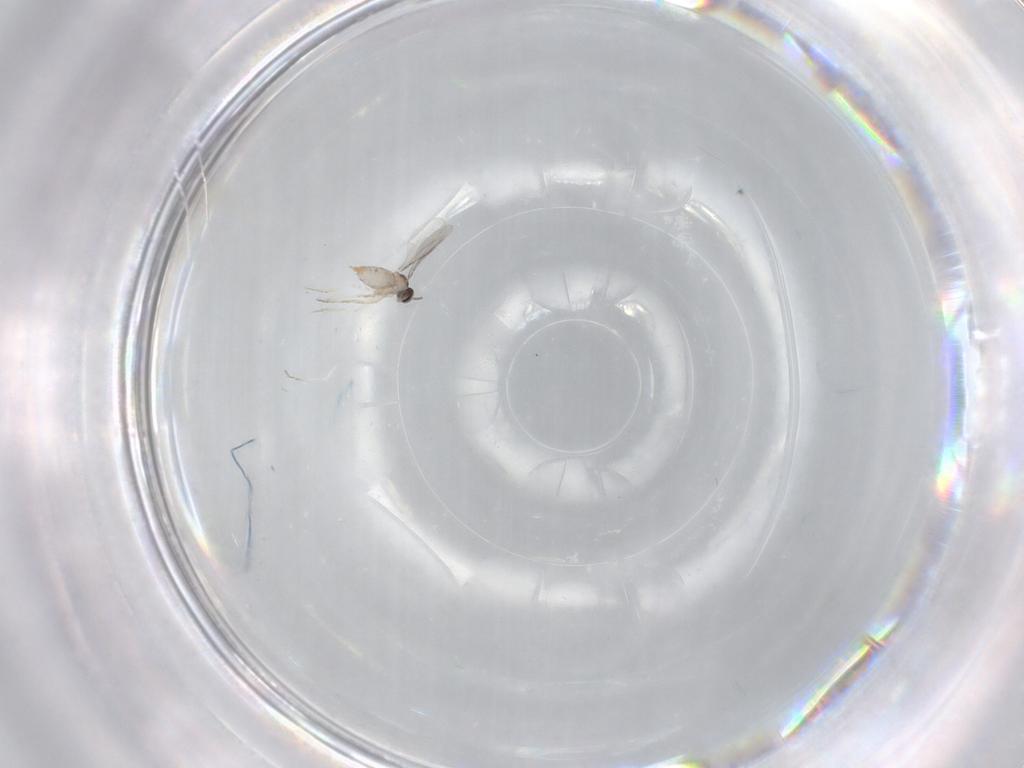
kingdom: Animalia
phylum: Arthropoda
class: Insecta
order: Diptera
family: Cecidomyiidae
